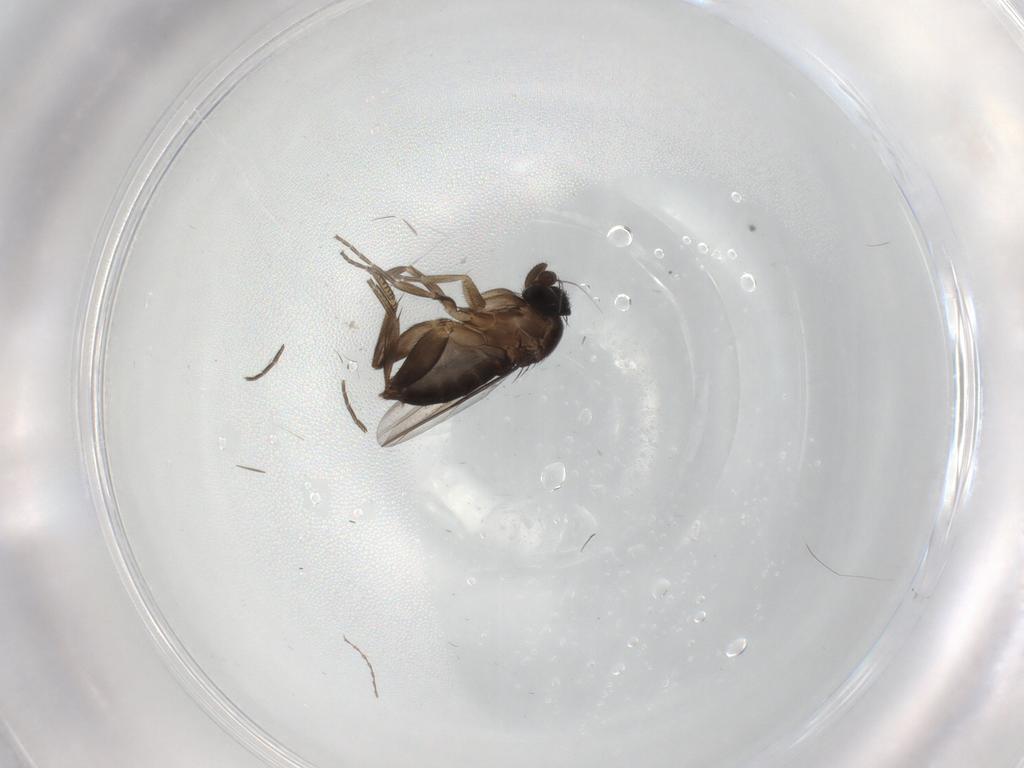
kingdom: Animalia
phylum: Arthropoda
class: Insecta
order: Diptera
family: Phoridae
